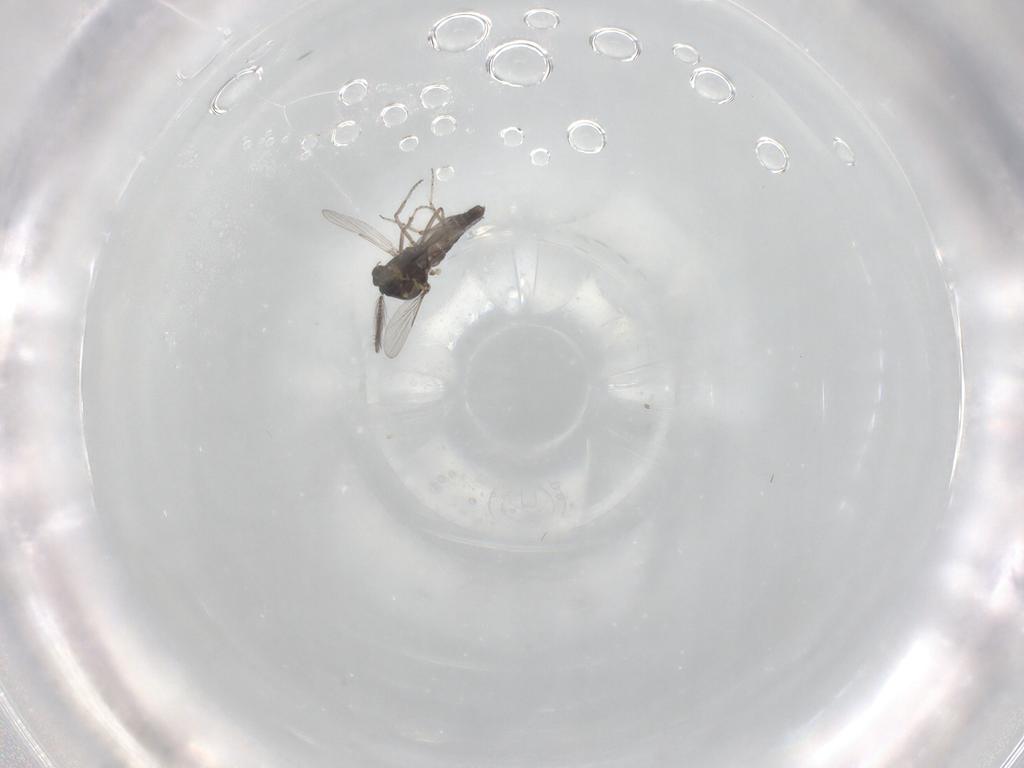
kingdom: Animalia
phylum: Arthropoda
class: Insecta
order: Diptera
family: Ceratopogonidae
